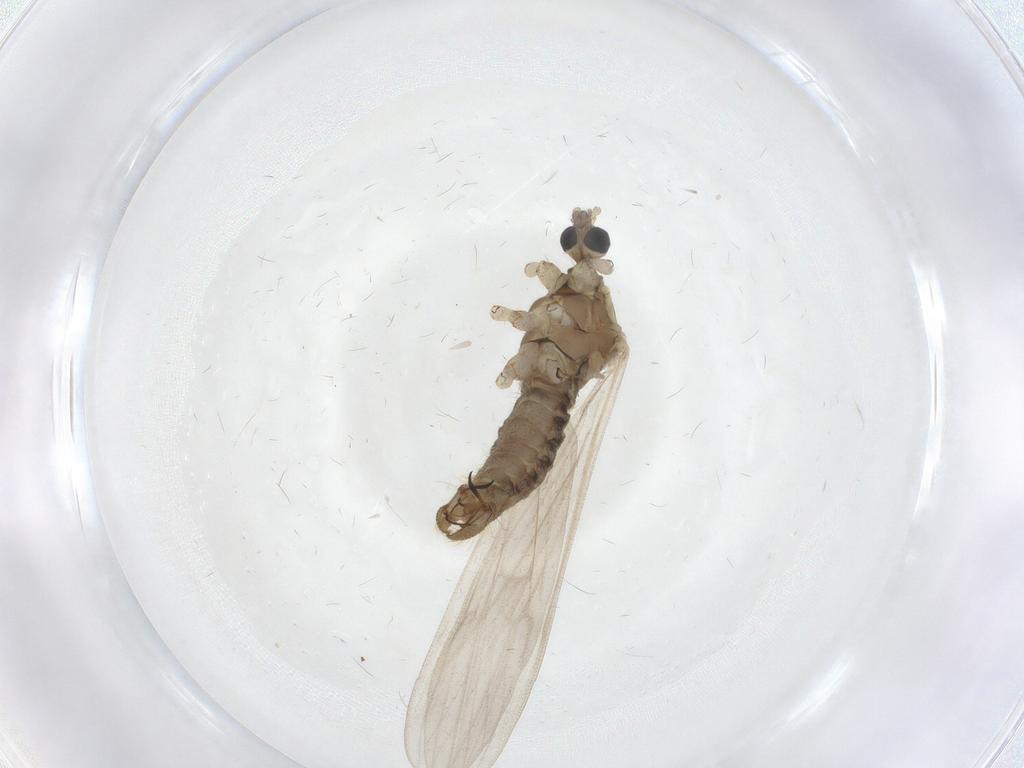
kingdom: Animalia
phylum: Arthropoda
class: Insecta
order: Diptera
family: Limoniidae
